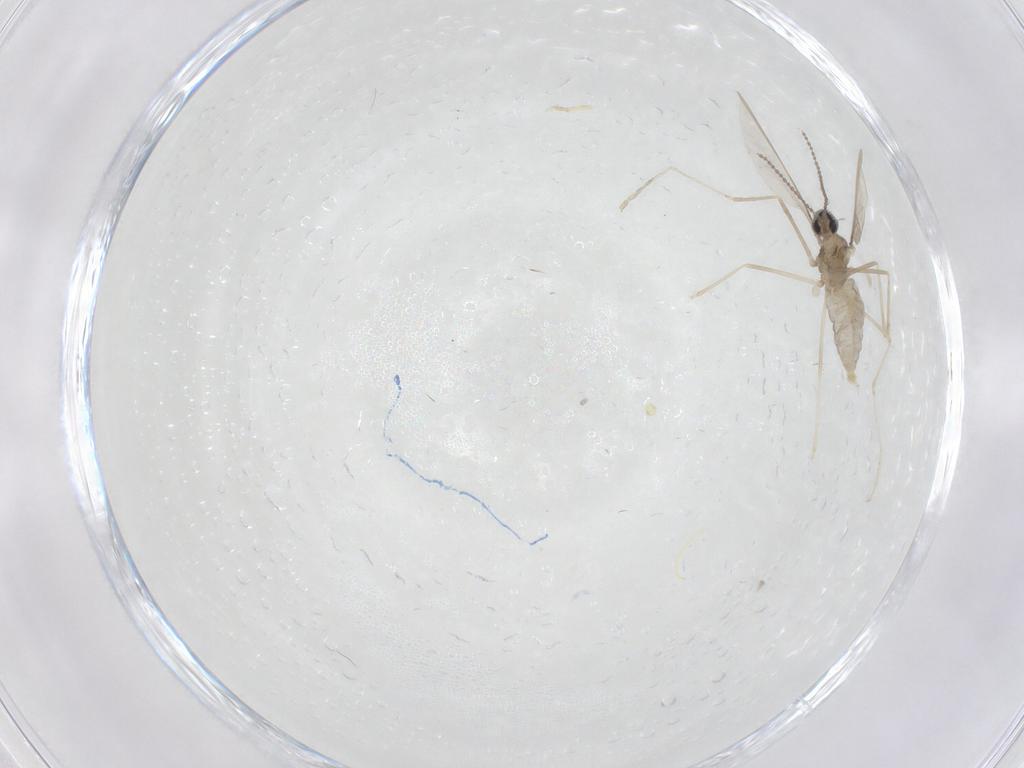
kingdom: Animalia
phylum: Arthropoda
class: Insecta
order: Diptera
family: Cecidomyiidae
